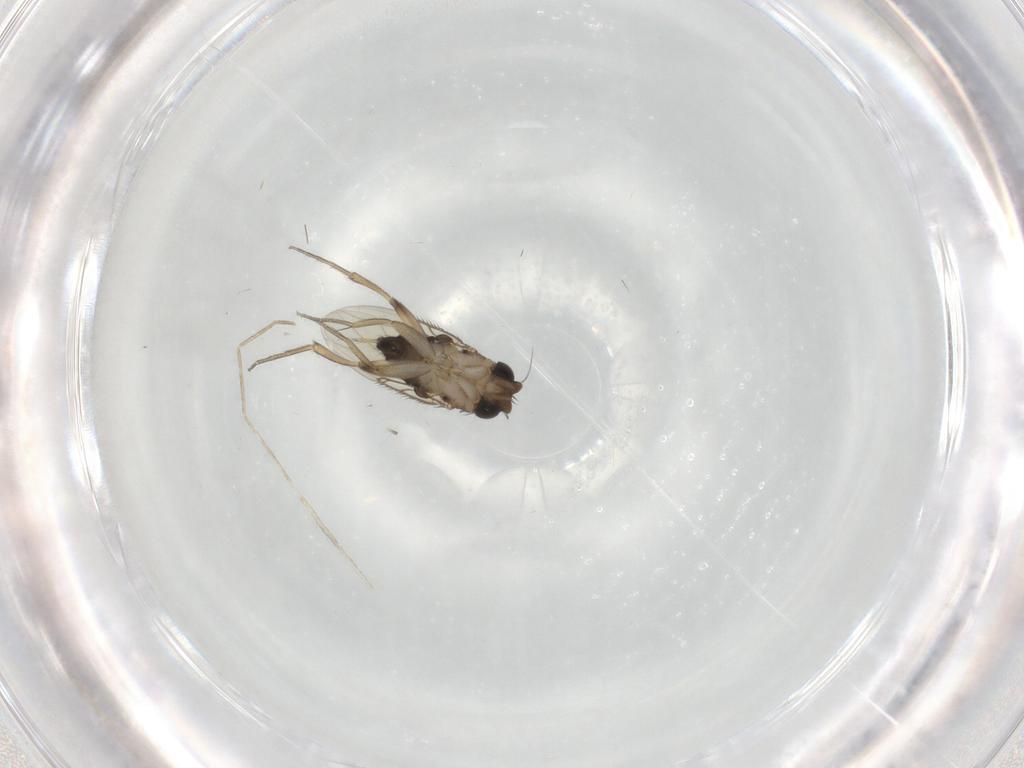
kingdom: Animalia
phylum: Arthropoda
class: Insecta
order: Diptera
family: Phoridae
